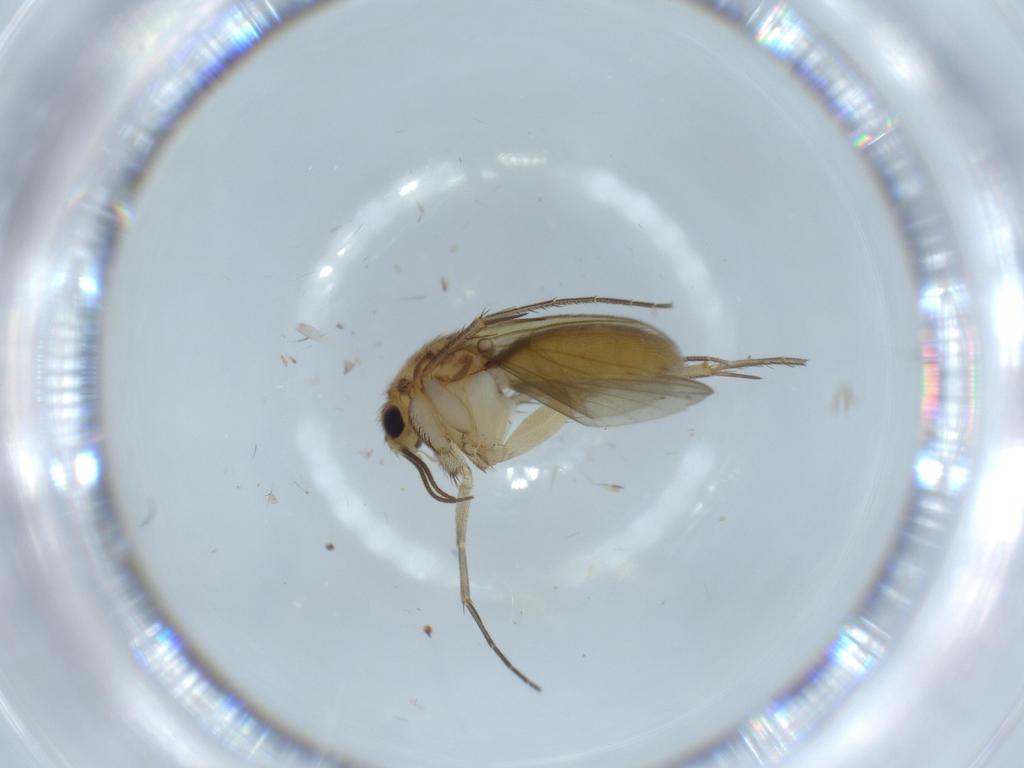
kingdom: Animalia
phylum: Arthropoda
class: Insecta
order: Diptera
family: Mycetophilidae
